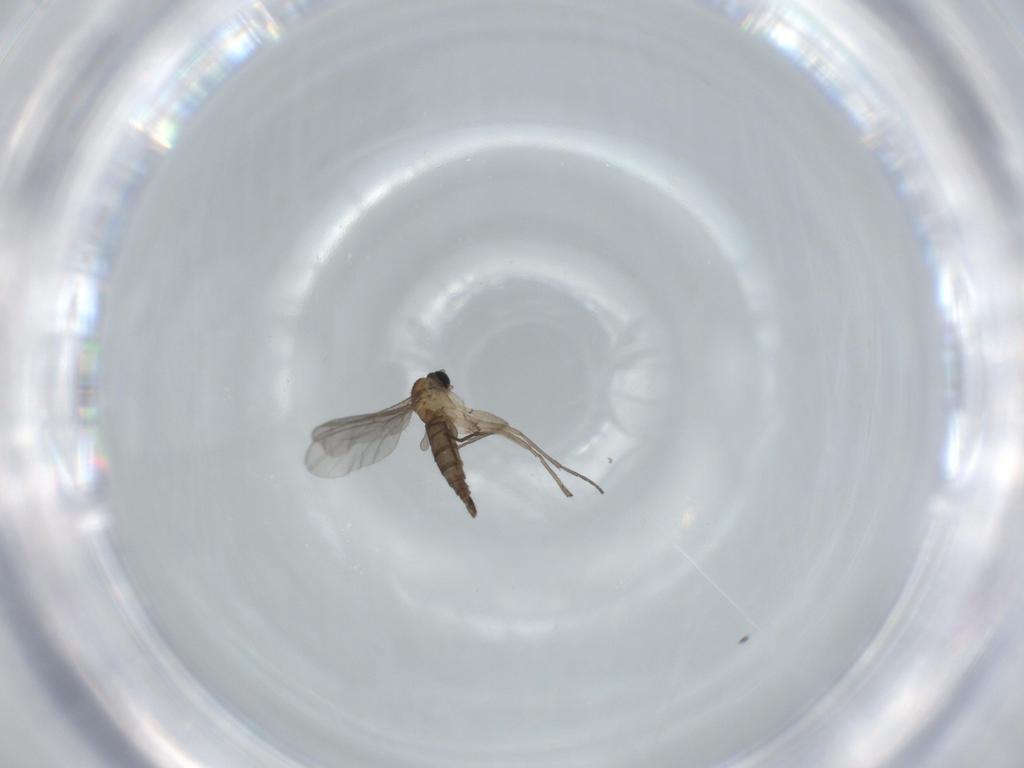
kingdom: Animalia
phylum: Arthropoda
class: Insecta
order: Diptera
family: Sciaridae
